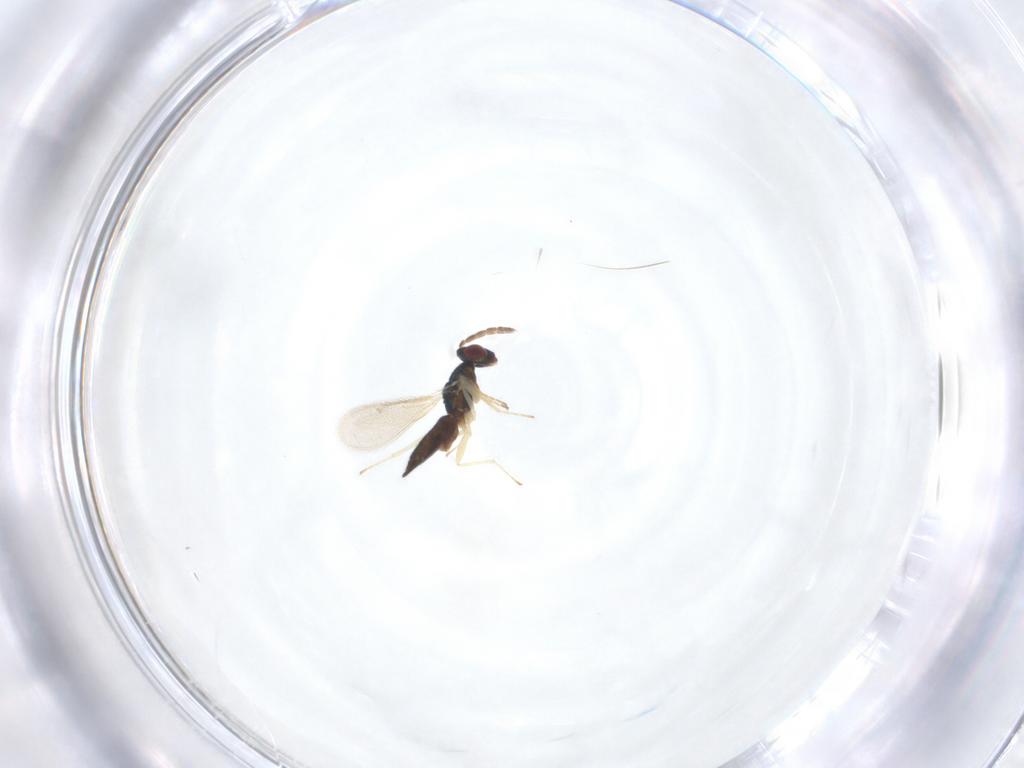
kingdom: Animalia
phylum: Arthropoda
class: Insecta
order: Hymenoptera
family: Eulophidae
